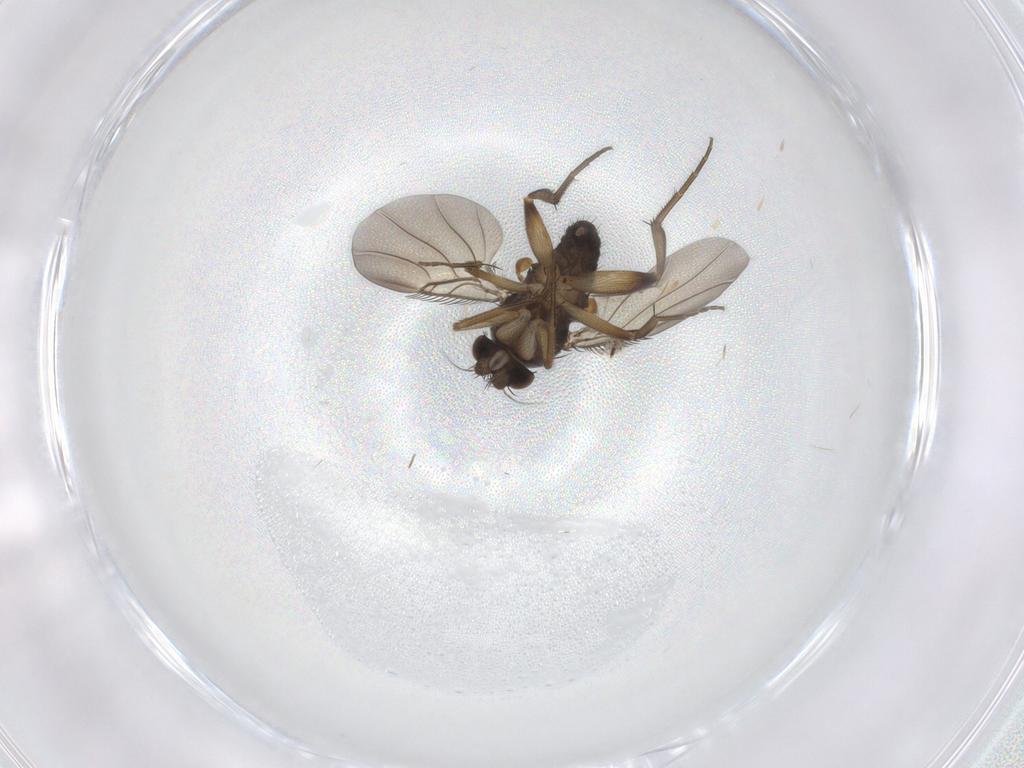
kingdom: Animalia
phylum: Arthropoda
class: Insecta
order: Diptera
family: Phoridae
